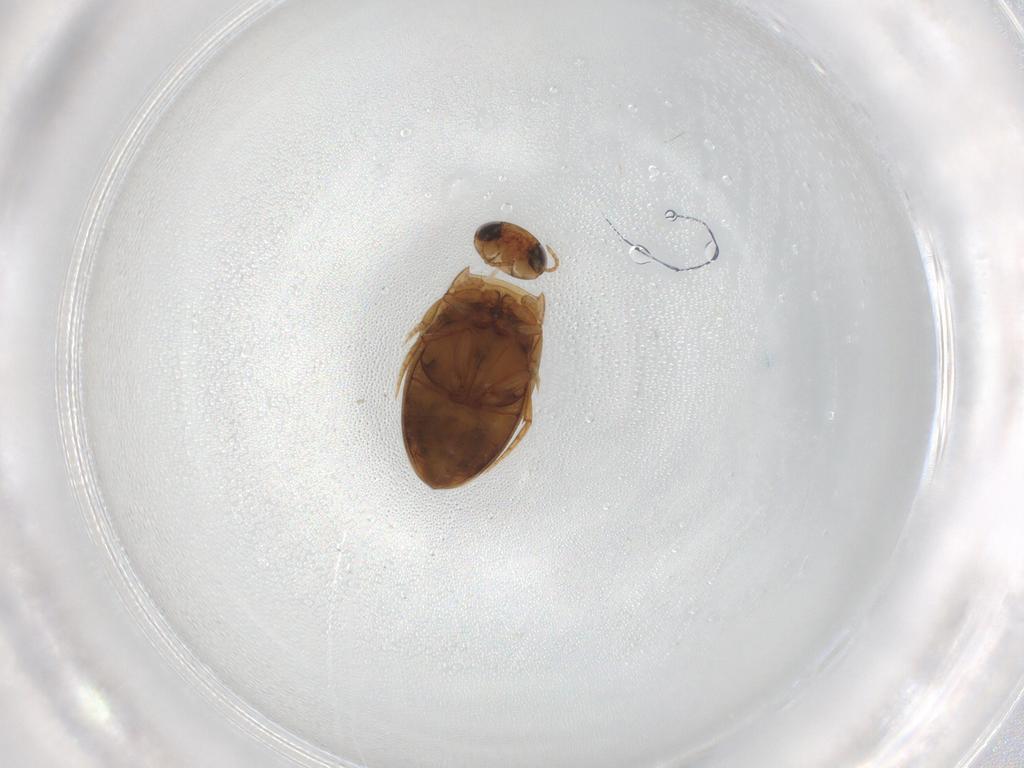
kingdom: Animalia
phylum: Arthropoda
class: Insecta
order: Coleoptera
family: Dytiscidae
